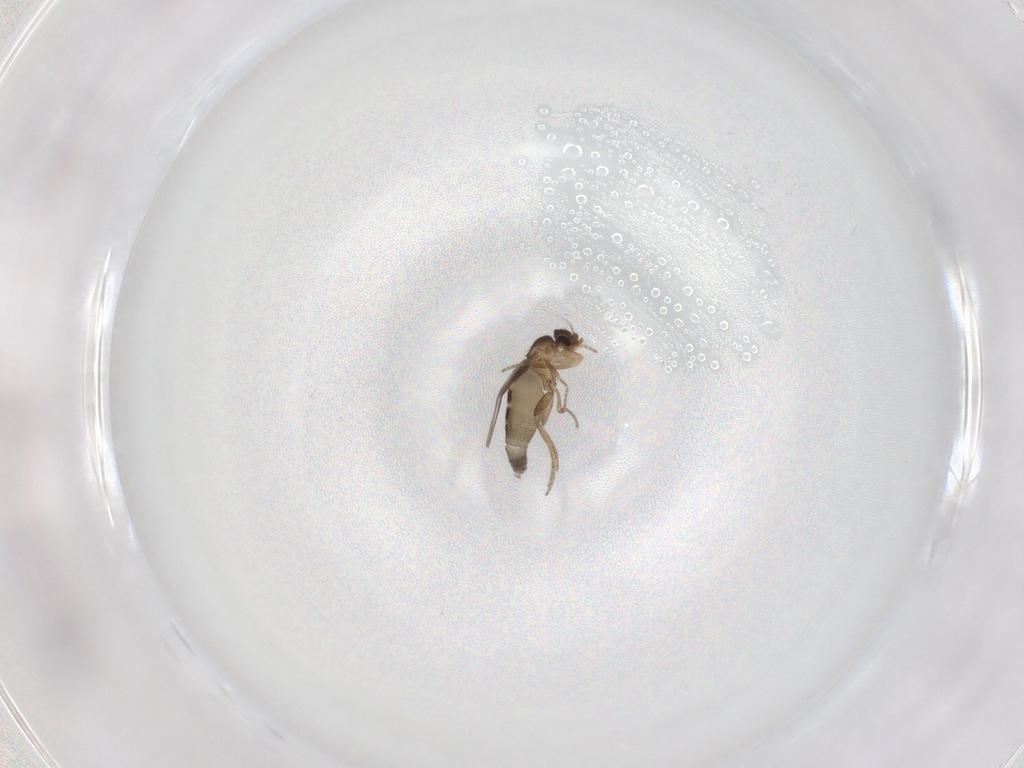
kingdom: Animalia
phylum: Arthropoda
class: Insecta
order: Diptera
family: Phoridae
